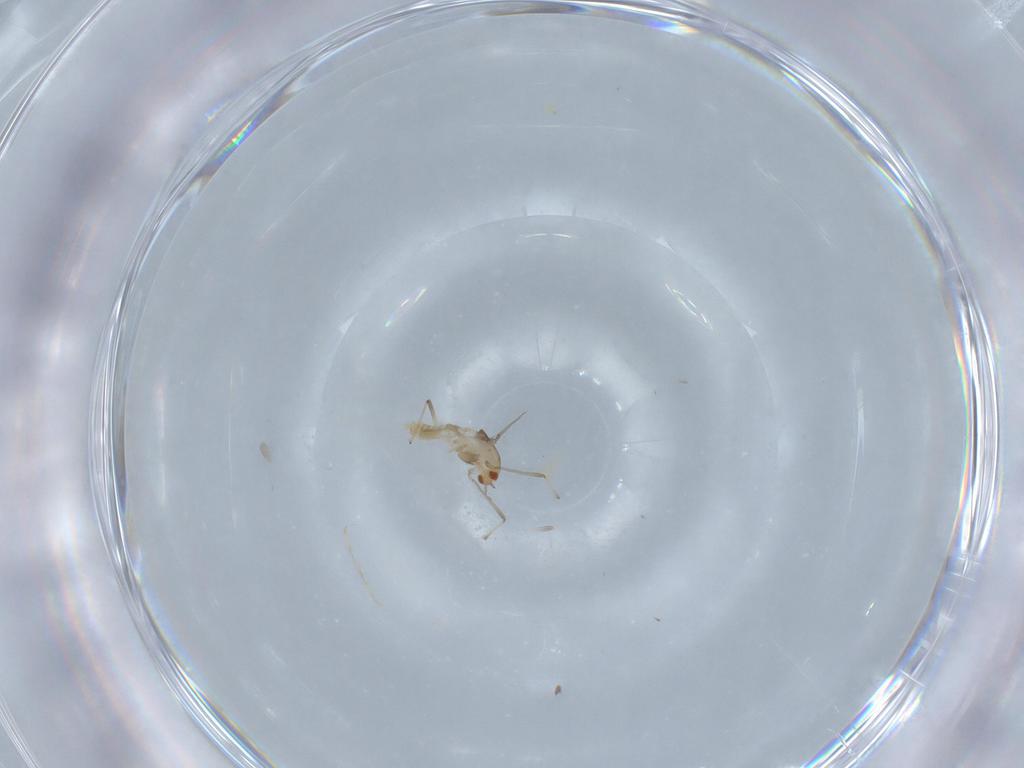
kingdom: Animalia
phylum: Arthropoda
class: Insecta
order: Diptera
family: Chironomidae
